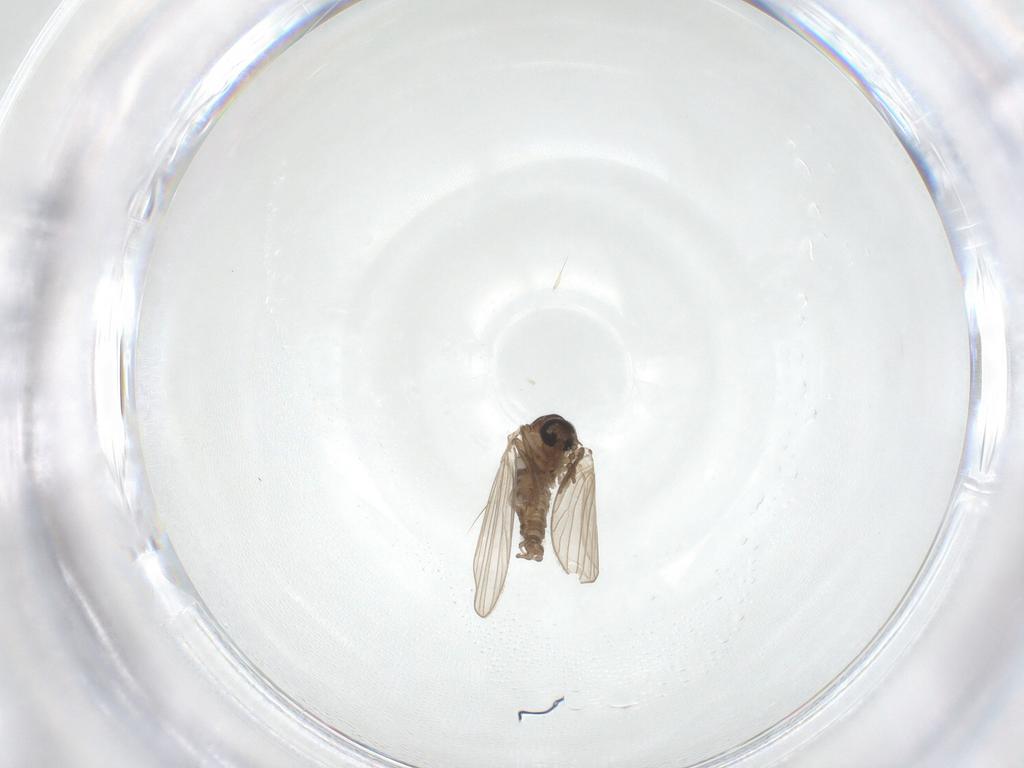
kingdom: Animalia
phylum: Arthropoda
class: Insecta
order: Diptera
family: Psychodidae
